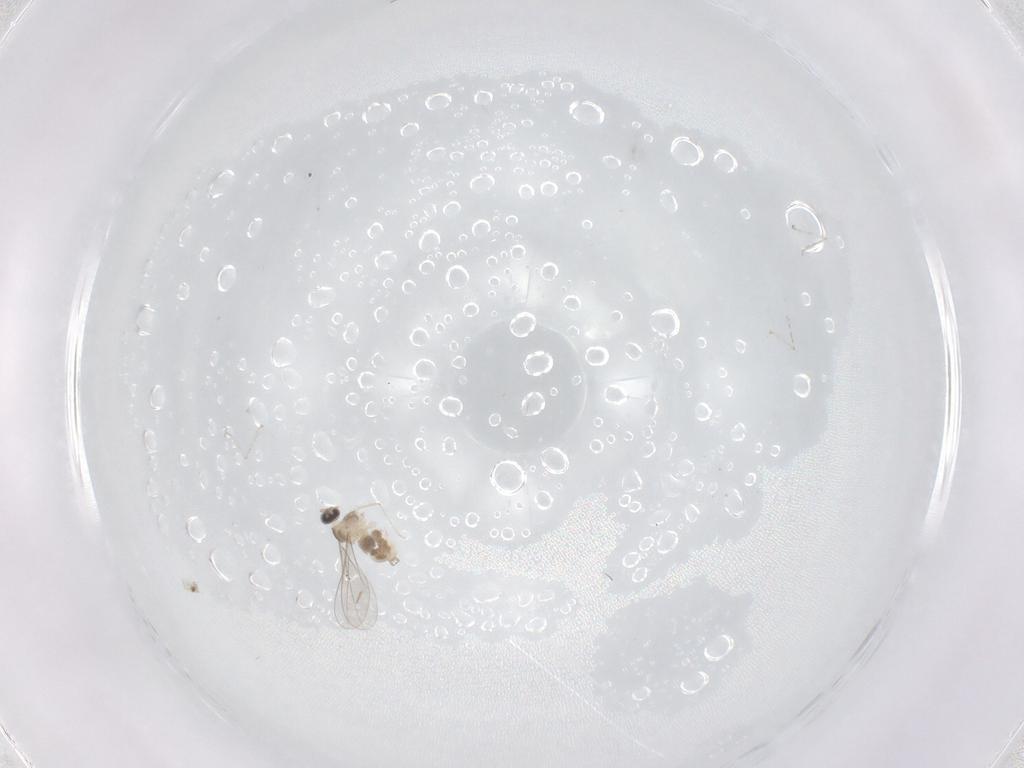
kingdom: Animalia
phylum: Arthropoda
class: Insecta
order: Diptera
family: Cecidomyiidae
